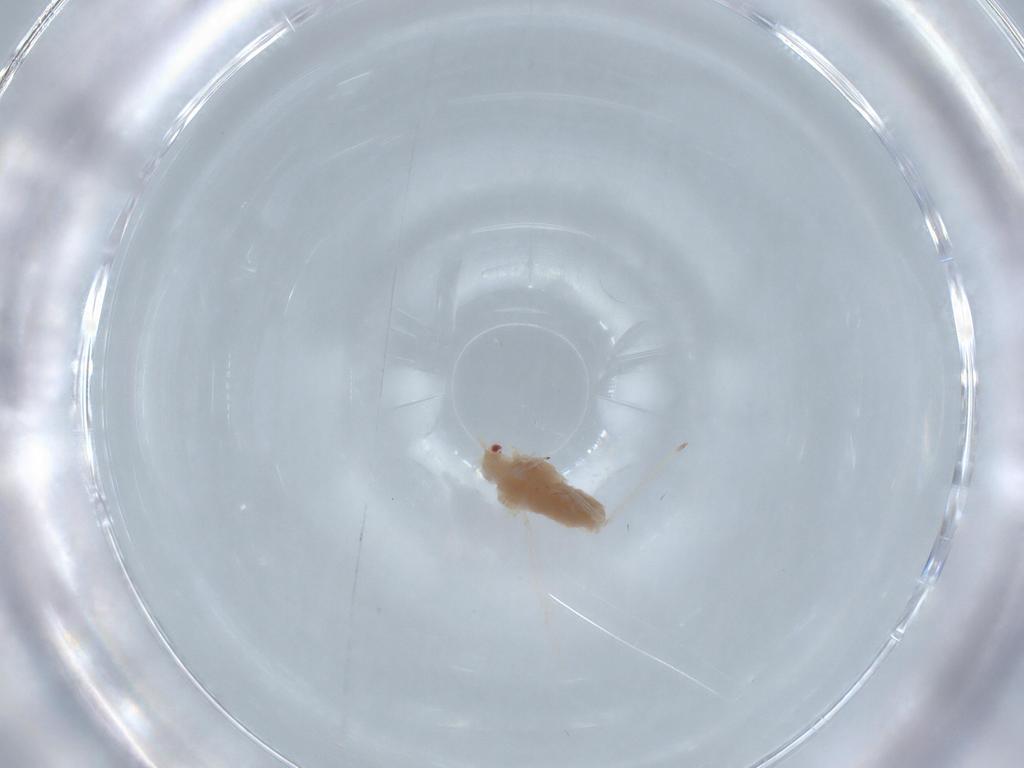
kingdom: Animalia
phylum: Arthropoda
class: Insecta
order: Hemiptera
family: Aphididae
